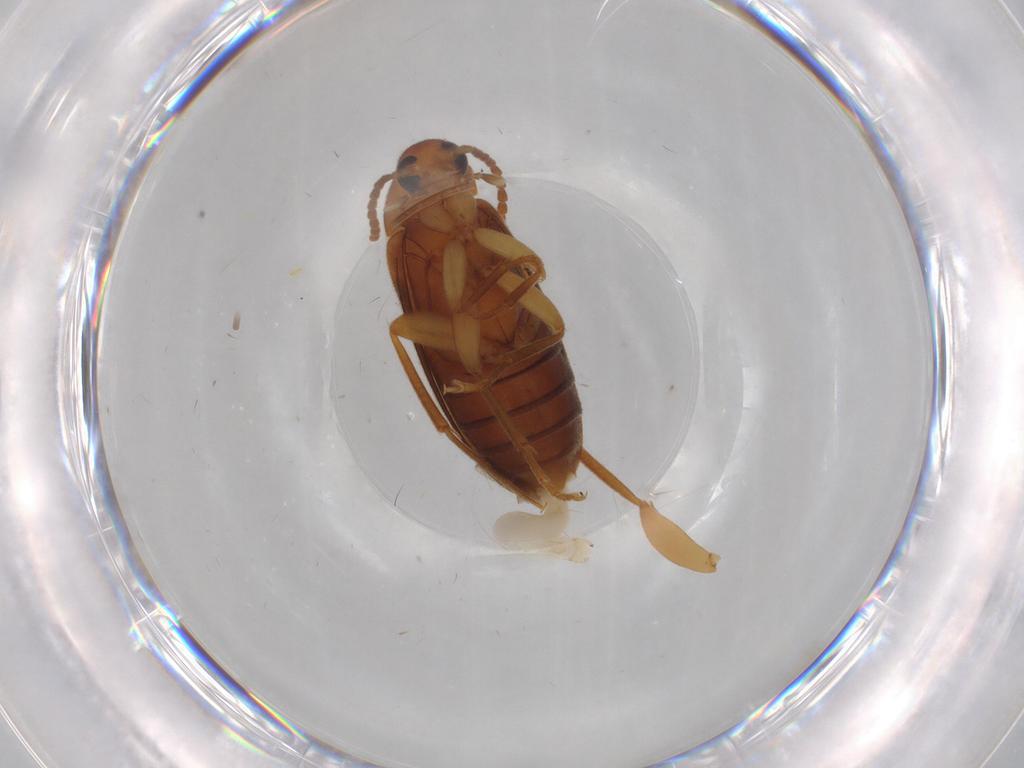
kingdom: Animalia
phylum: Arthropoda
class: Insecta
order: Coleoptera
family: Scraptiidae
